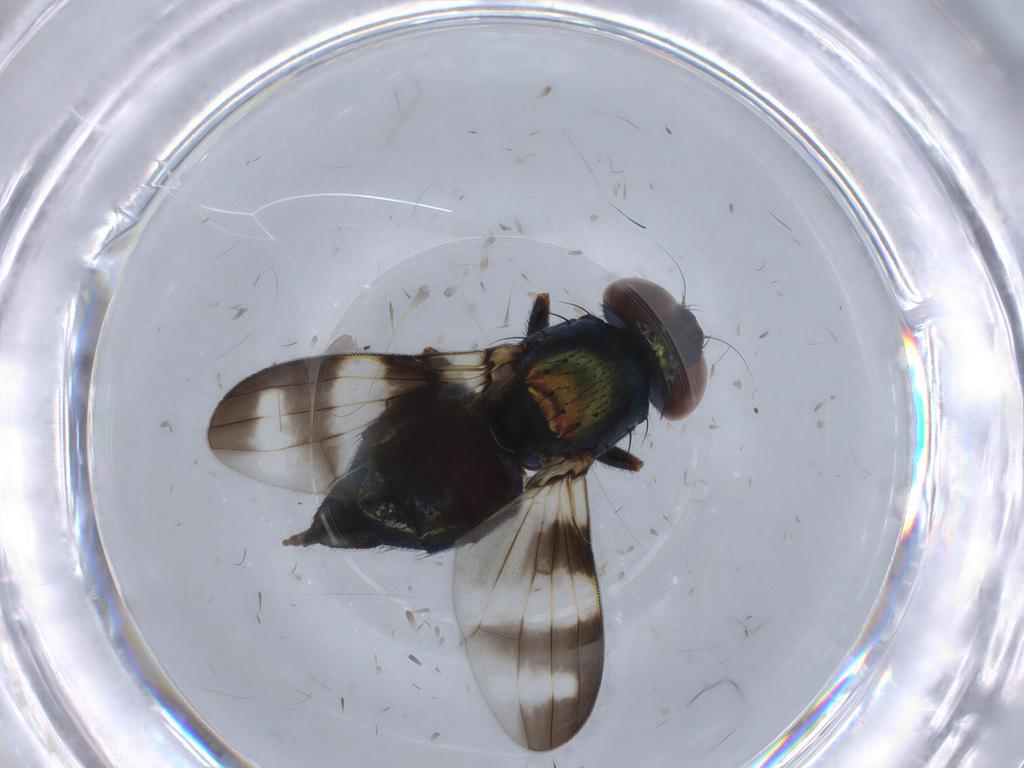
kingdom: Animalia
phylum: Arthropoda
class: Insecta
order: Diptera
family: Ulidiidae
